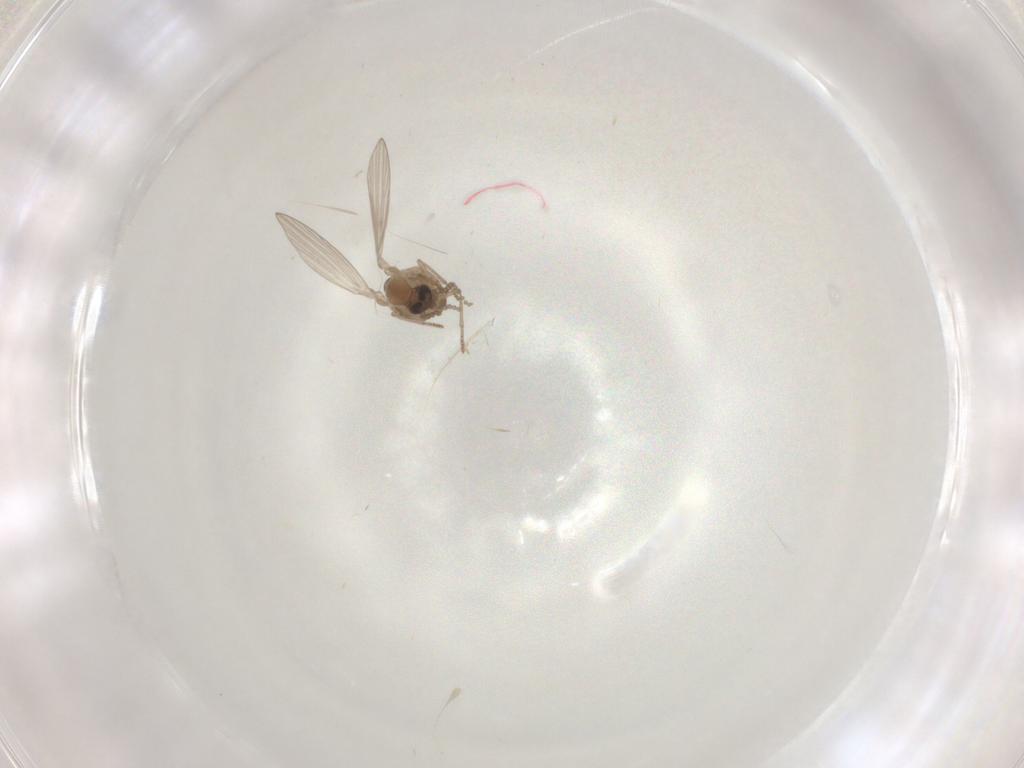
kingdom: Animalia
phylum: Arthropoda
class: Insecta
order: Diptera
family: Psychodidae
